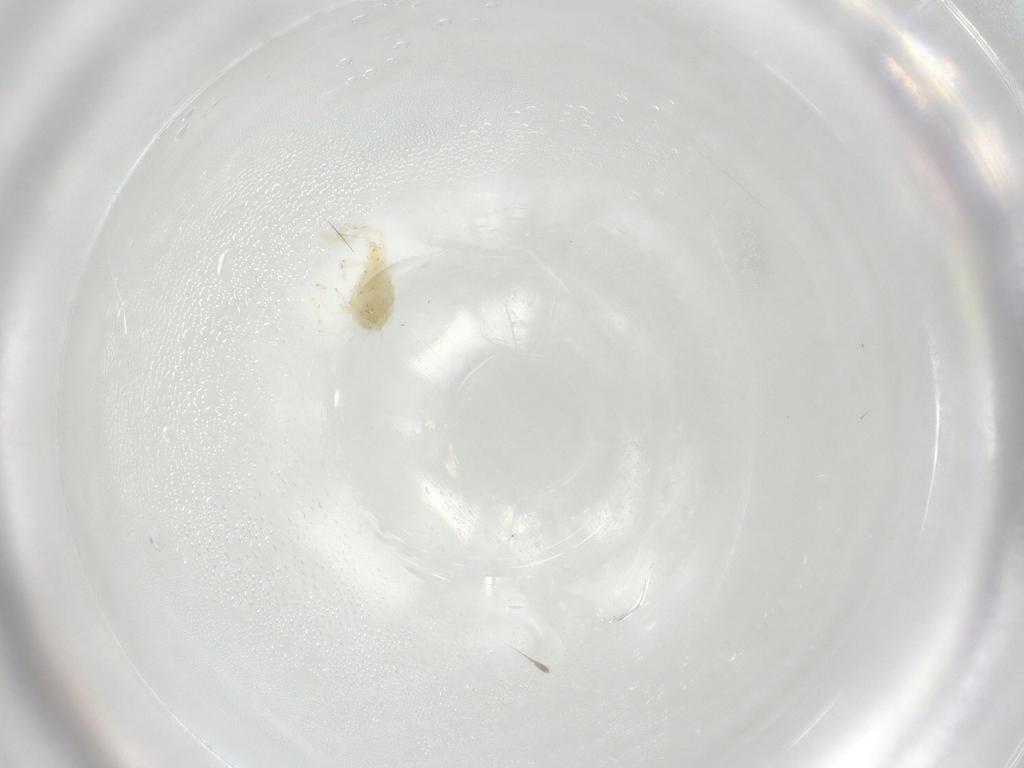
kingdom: Animalia
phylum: Arthropoda
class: Arachnida
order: Trombidiformes
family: Erythraeidae
